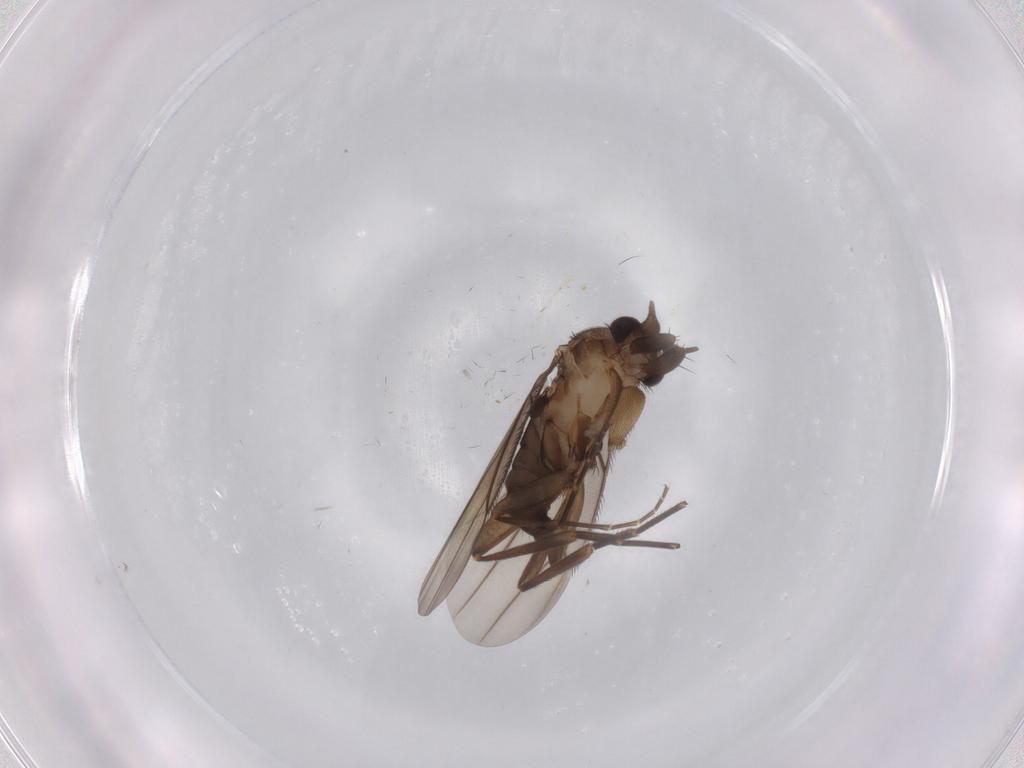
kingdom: Animalia
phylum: Arthropoda
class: Insecta
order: Diptera
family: Phoridae
